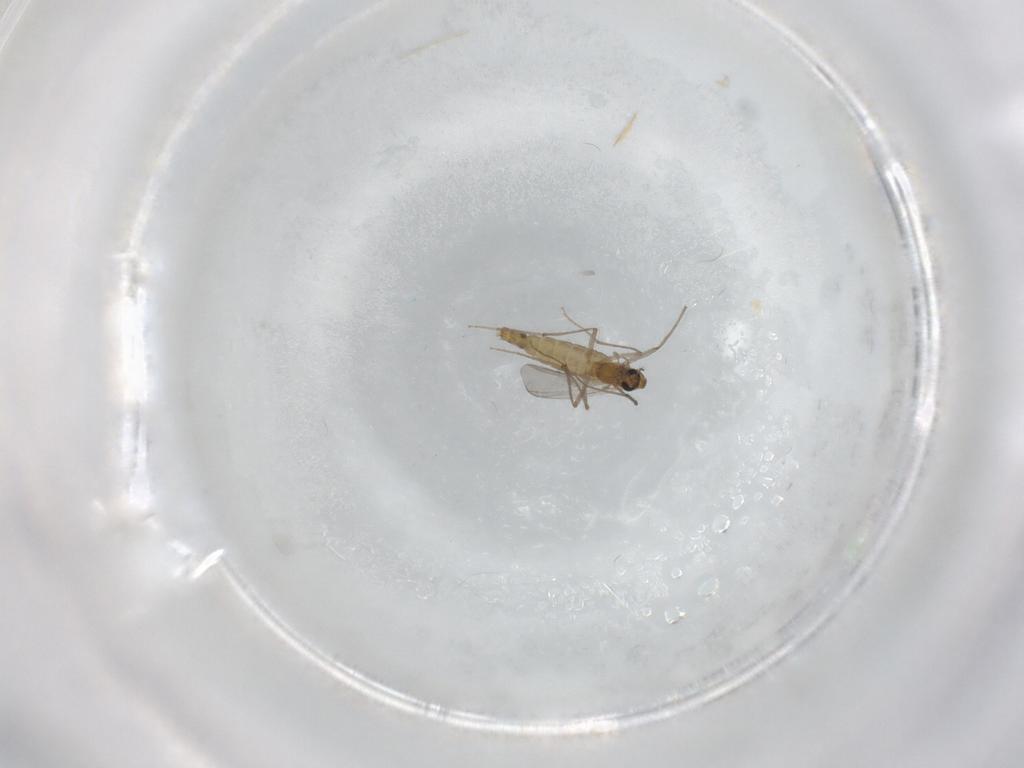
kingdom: Animalia
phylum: Arthropoda
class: Insecta
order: Diptera
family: Chironomidae
